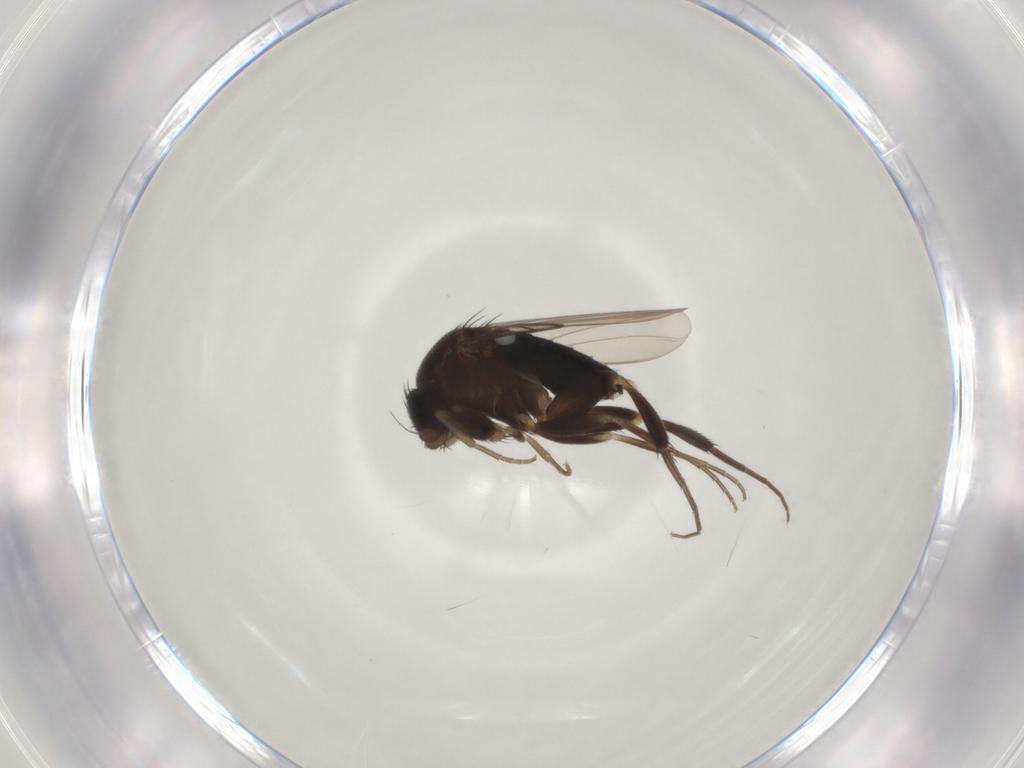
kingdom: Animalia
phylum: Arthropoda
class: Insecta
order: Diptera
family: Phoridae
